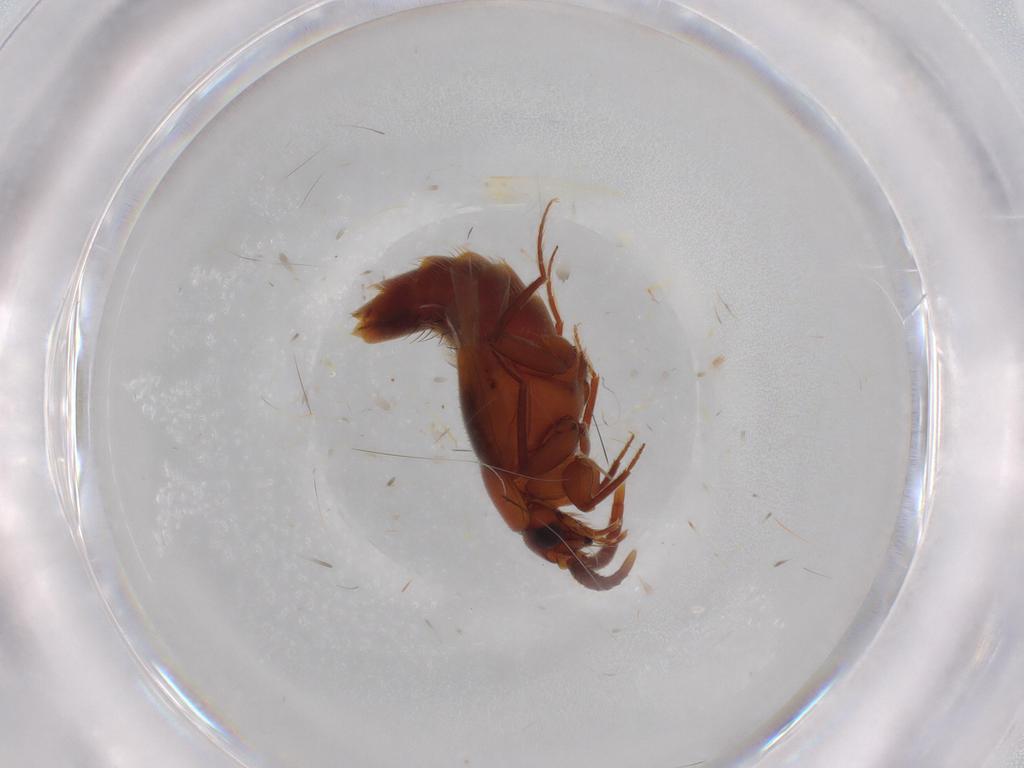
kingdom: Animalia
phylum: Arthropoda
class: Insecta
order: Coleoptera
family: Staphylinidae
